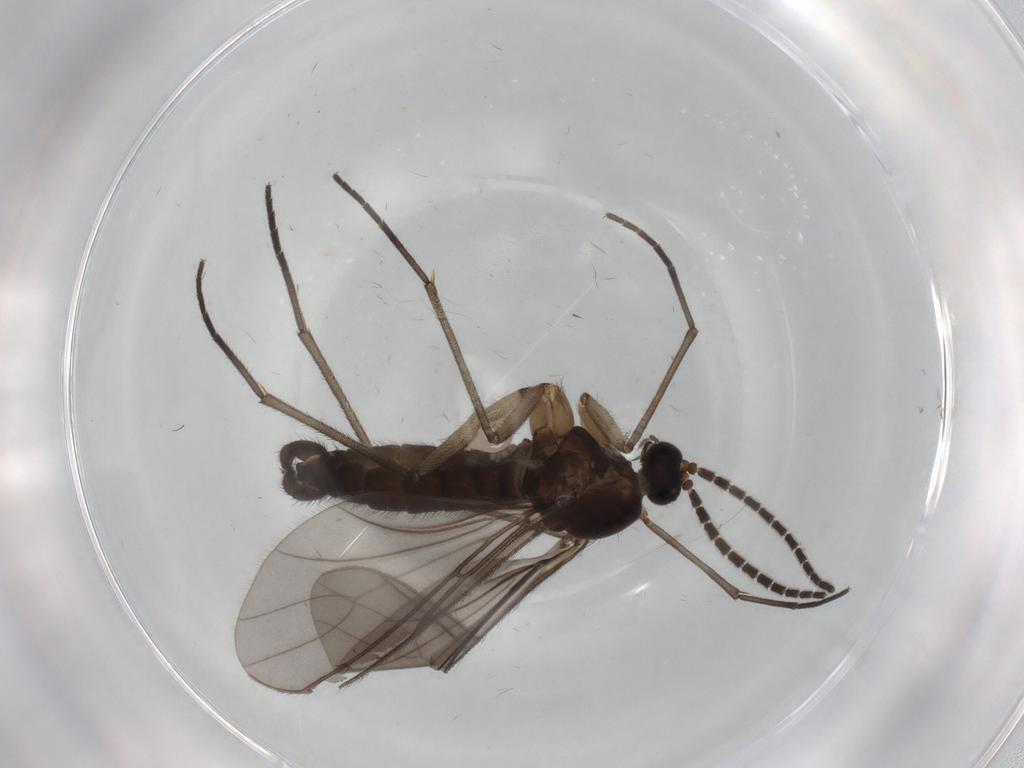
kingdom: Animalia
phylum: Arthropoda
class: Insecta
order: Diptera
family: Sciaridae
